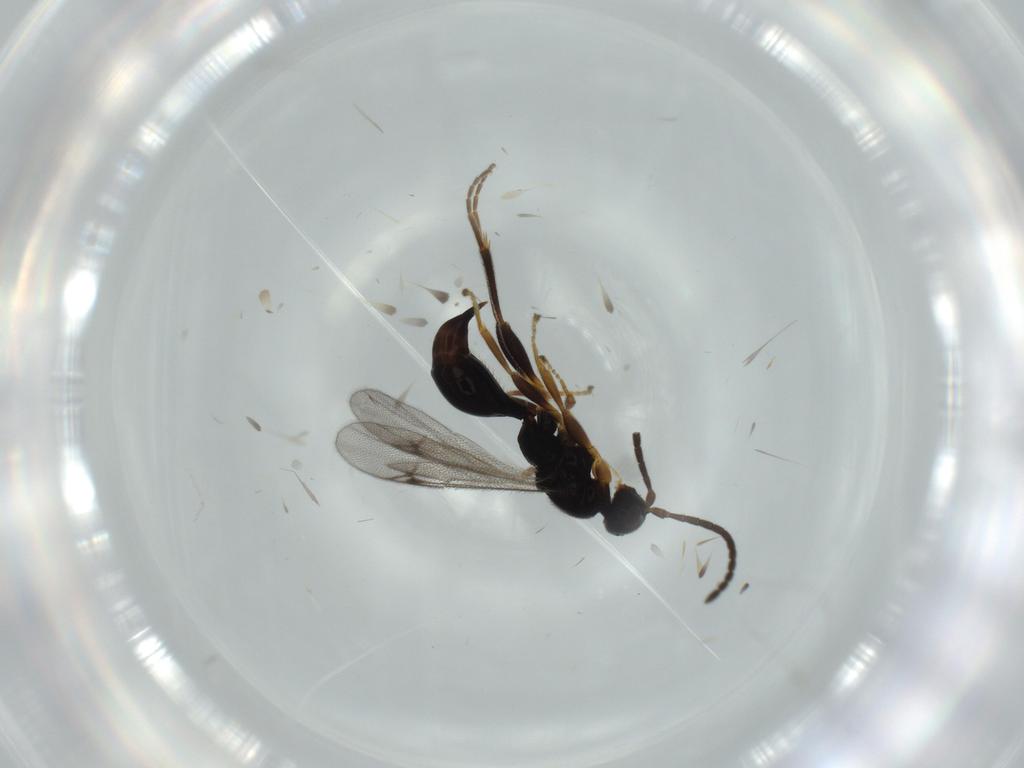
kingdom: Animalia
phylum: Arthropoda
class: Insecta
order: Hymenoptera
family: Proctotrupidae
